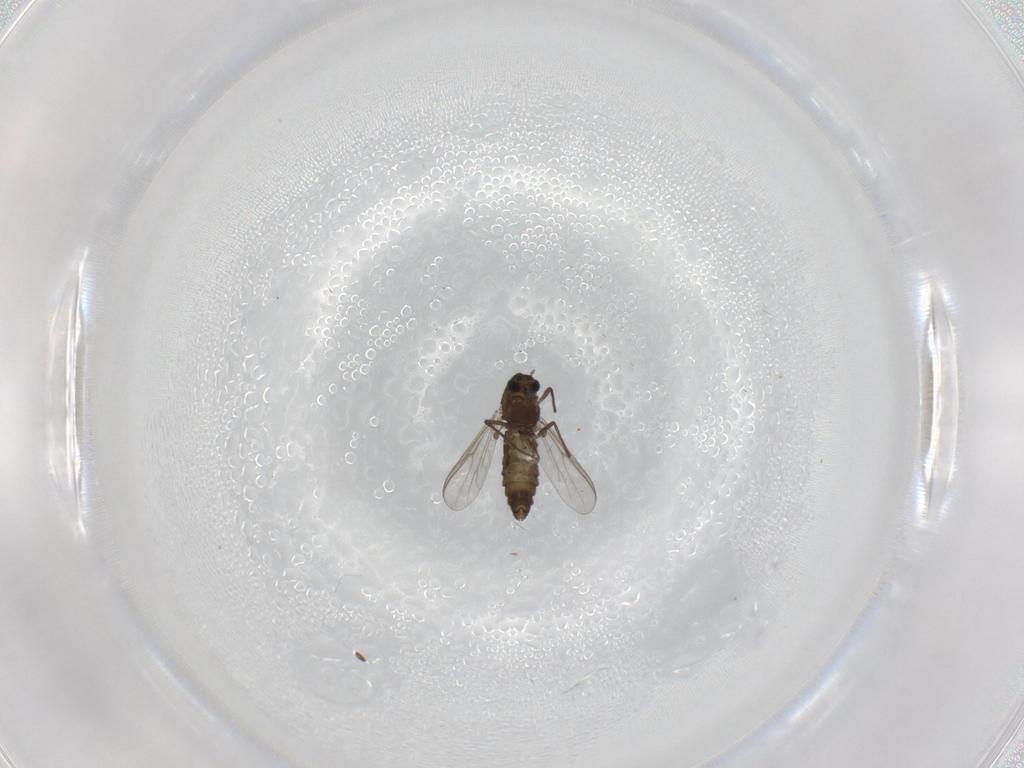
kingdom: Animalia
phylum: Arthropoda
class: Insecta
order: Diptera
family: Chironomidae
